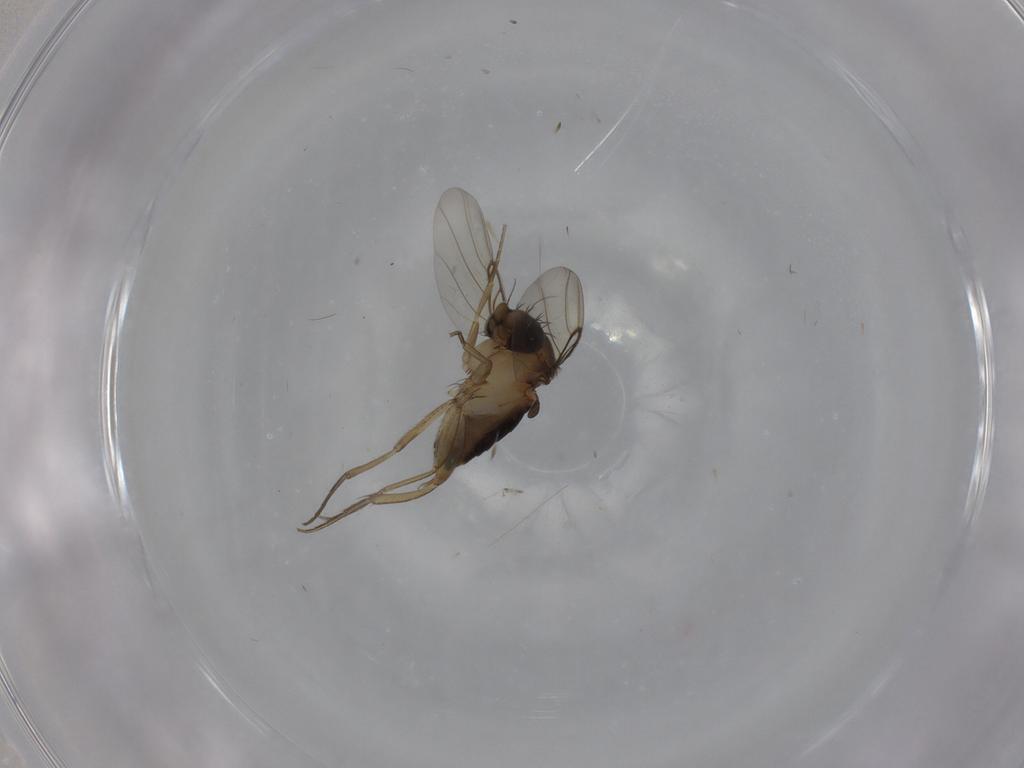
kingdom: Animalia
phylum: Arthropoda
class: Insecta
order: Diptera
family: Phoridae
